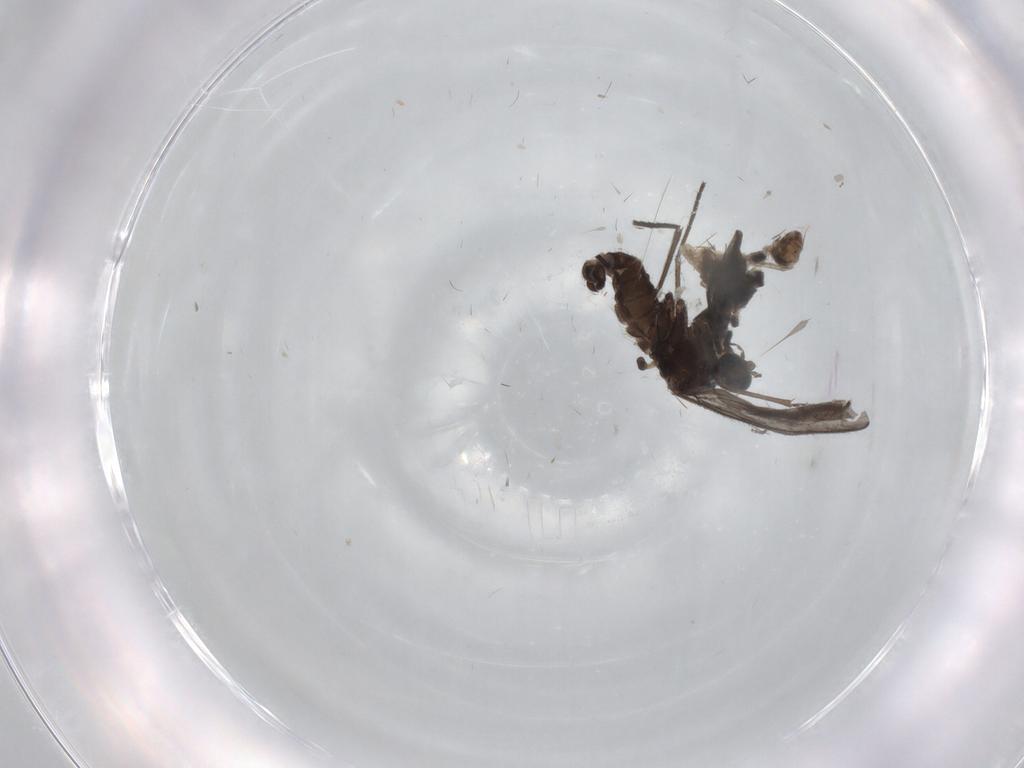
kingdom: Animalia
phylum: Arthropoda
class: Insecta
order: Diptera
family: Cecidomyiidae
